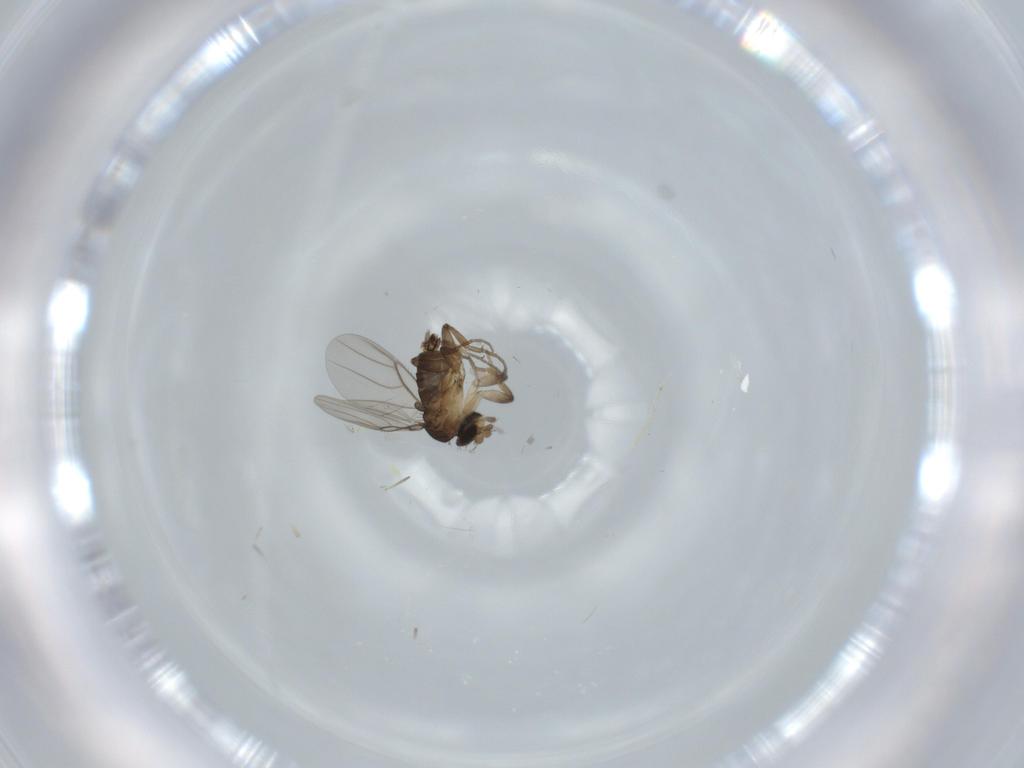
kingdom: Animalia
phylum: Arthropoda
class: Insecta
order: Diptera
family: Phoridae
